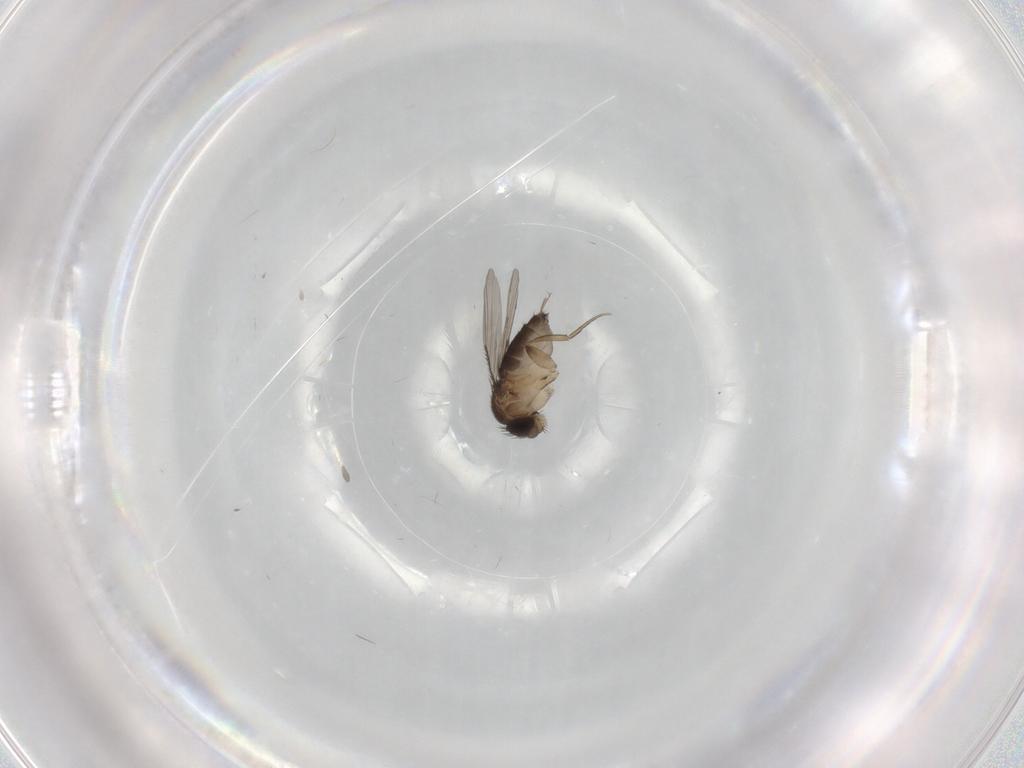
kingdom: Animalia
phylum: Arthropoda
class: Insecta
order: Diptera
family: Phoridae
